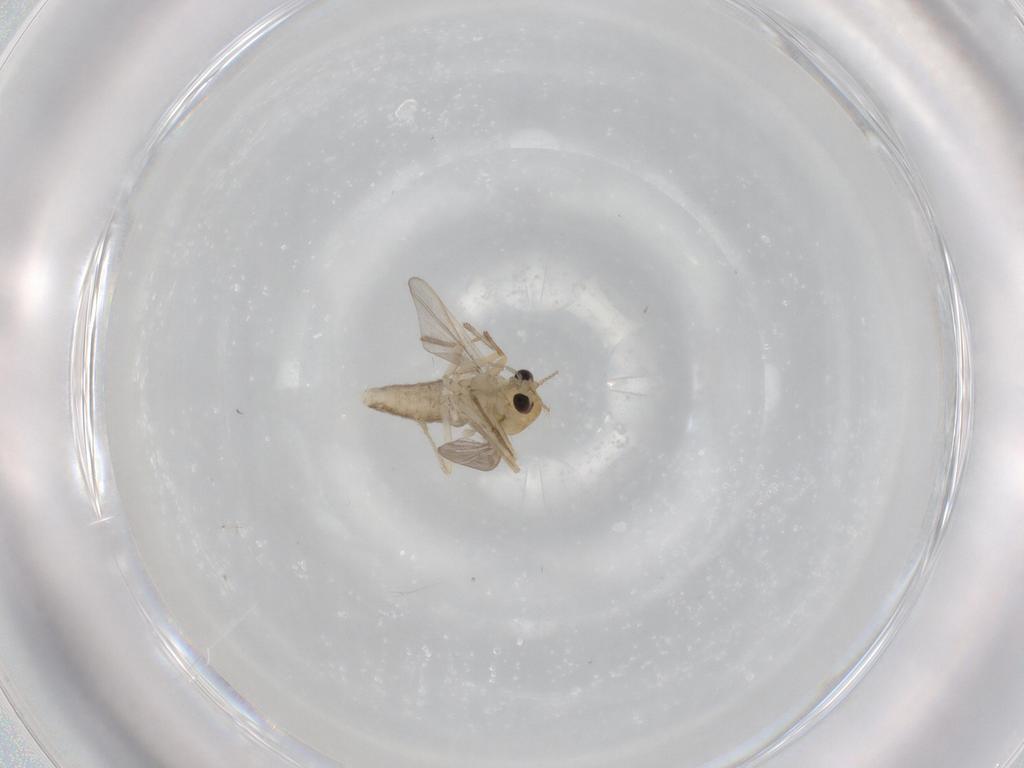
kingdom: Animalia
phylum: Arthropoda
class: Insecta
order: Diptera
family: Chironomidae
